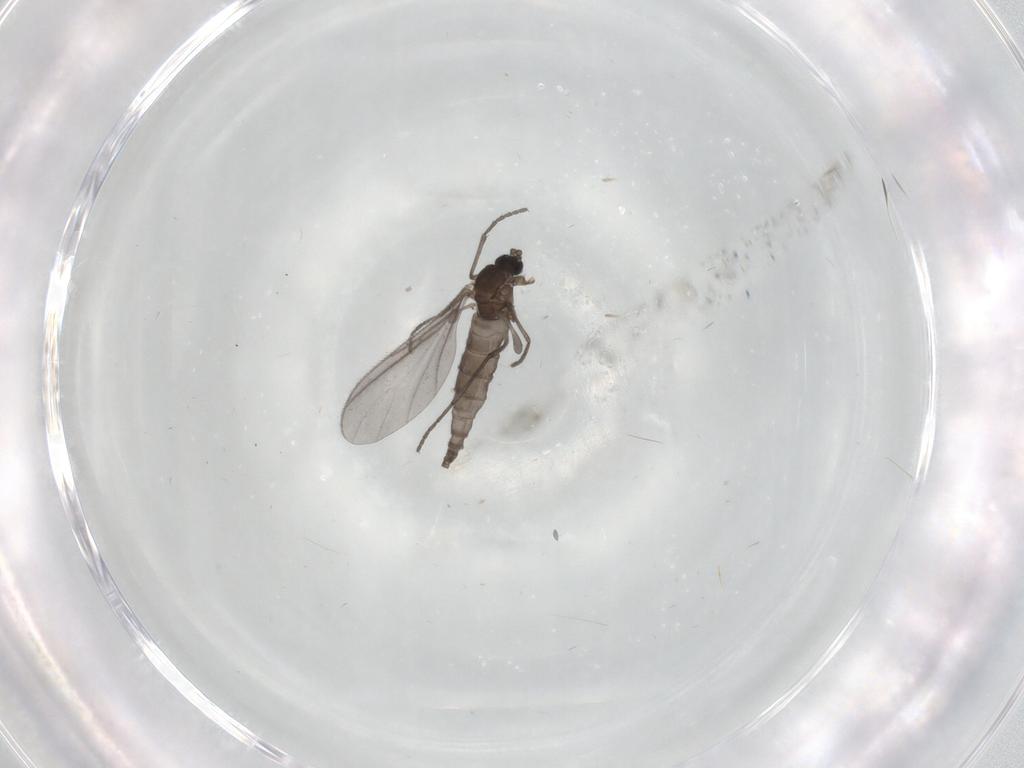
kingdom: Animalia
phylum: Arthropoda
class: Insecta
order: Diptera
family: Sciaridae
